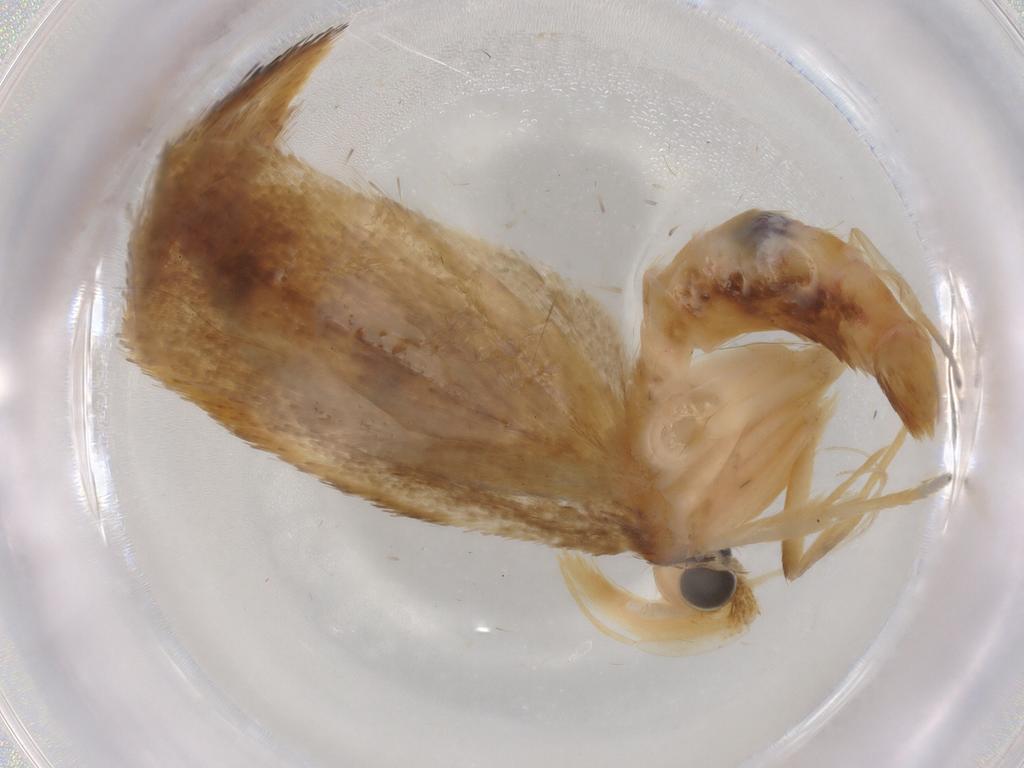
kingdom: Animalia
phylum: Arthropoda
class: Insecta
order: Lepidoptera
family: Lecithoceridae
